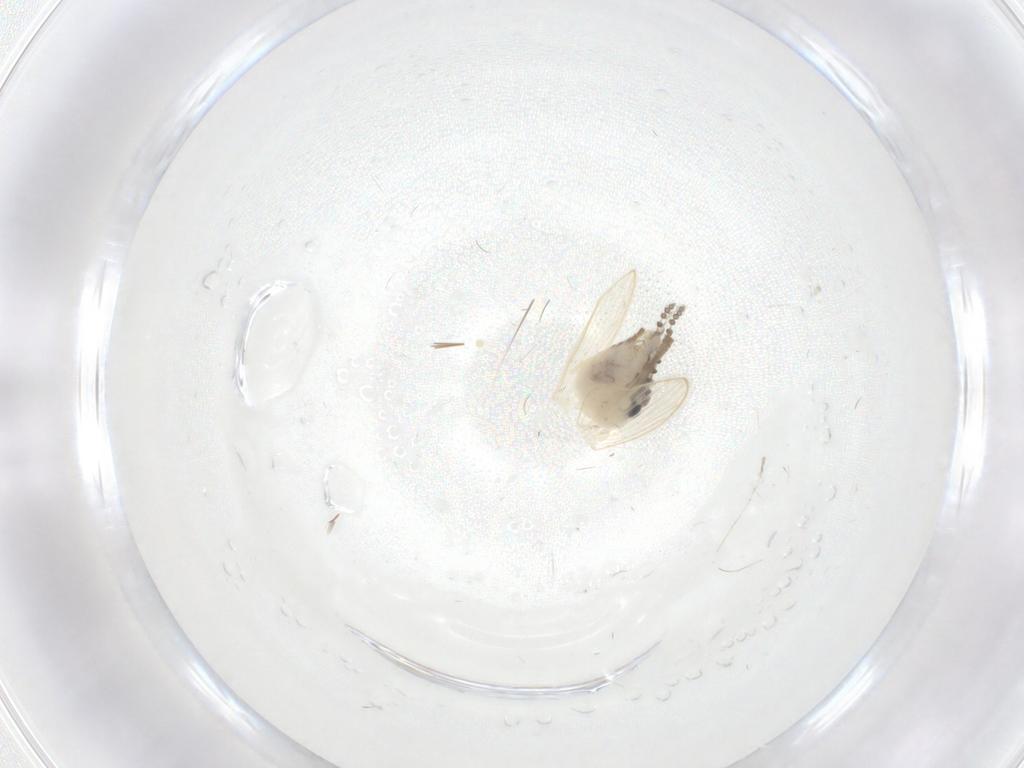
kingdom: Animalia
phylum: Arthropoda
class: Insecta
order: Diptera
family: Psychodidae
